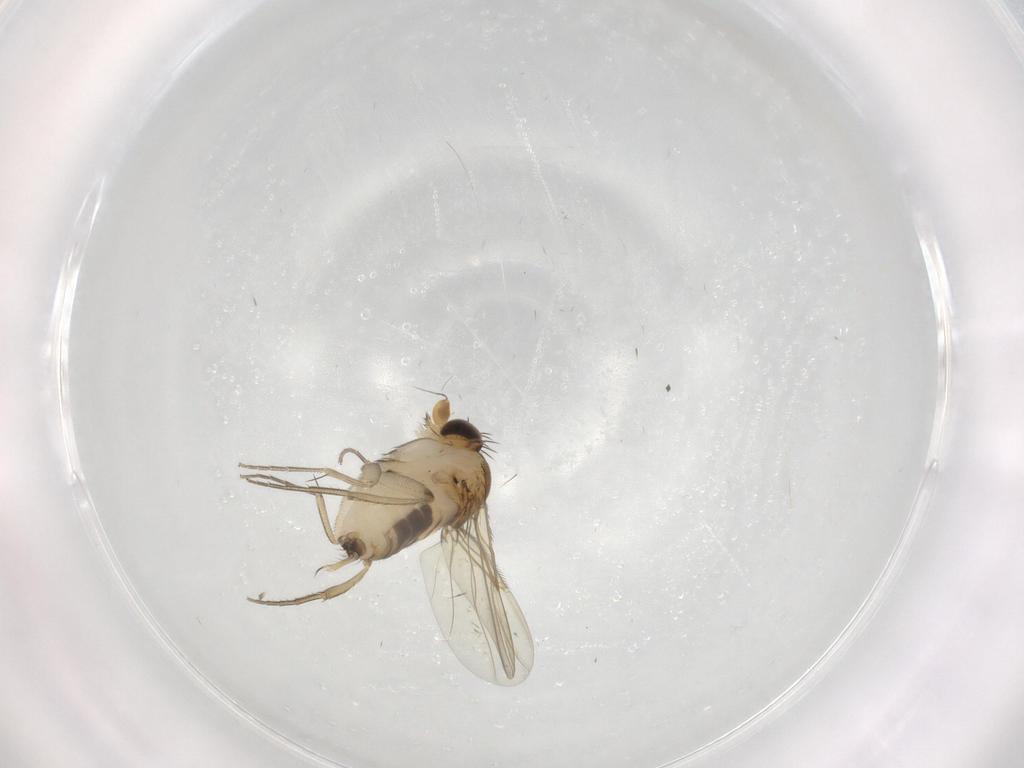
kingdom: Animalia
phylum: Arthropoda
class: Insecta
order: Diptera
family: Phoridae
